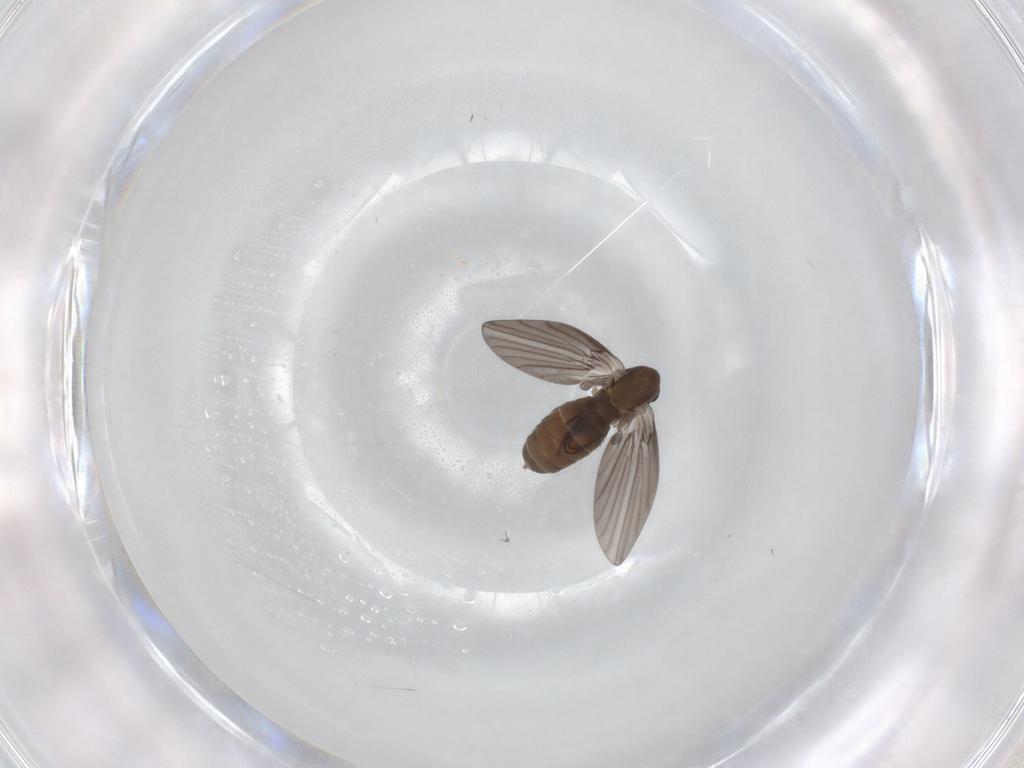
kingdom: Animalia
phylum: Arthropoda
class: Insecta
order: Diptera
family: Psychodidae
